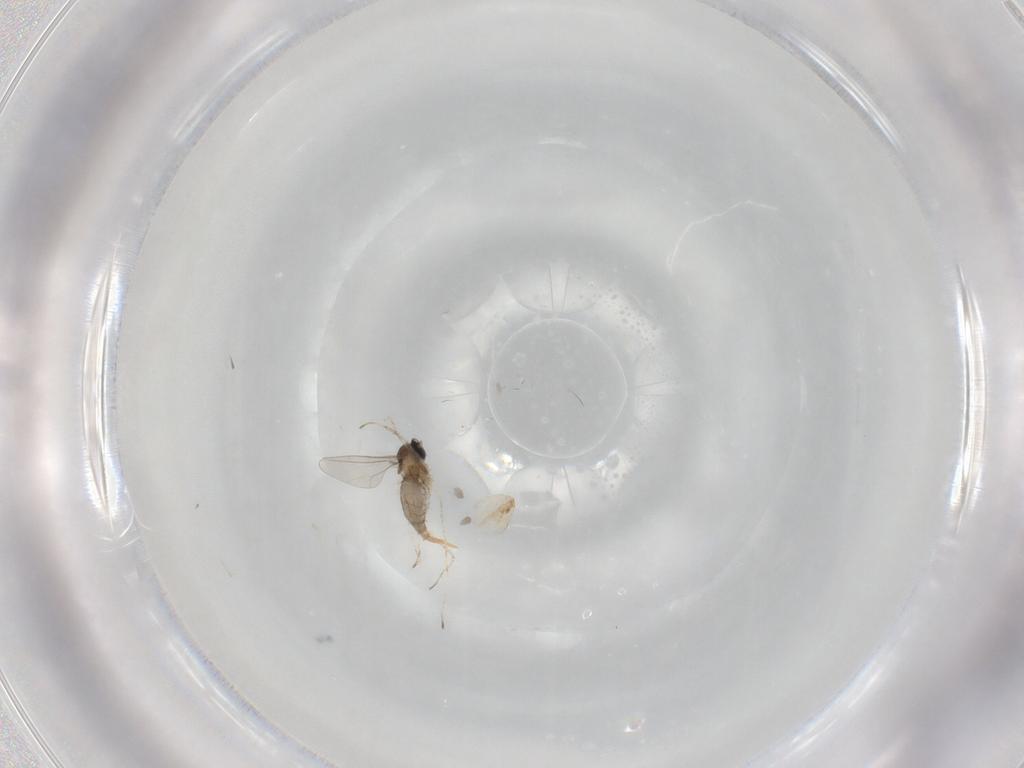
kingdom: Animalia
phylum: Arthropoda
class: Insecta
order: Diptera
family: Cecidomyiidae
